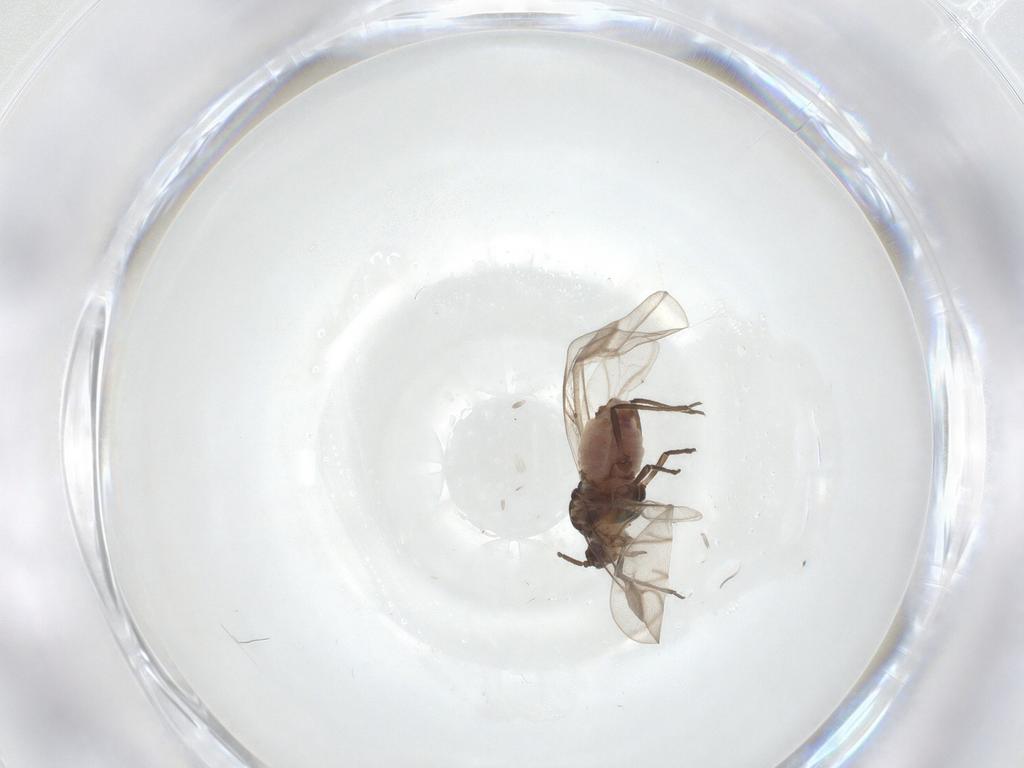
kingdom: Animalia
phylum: Arthropoda
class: Insecta
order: Hemiptera
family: Aphididae
